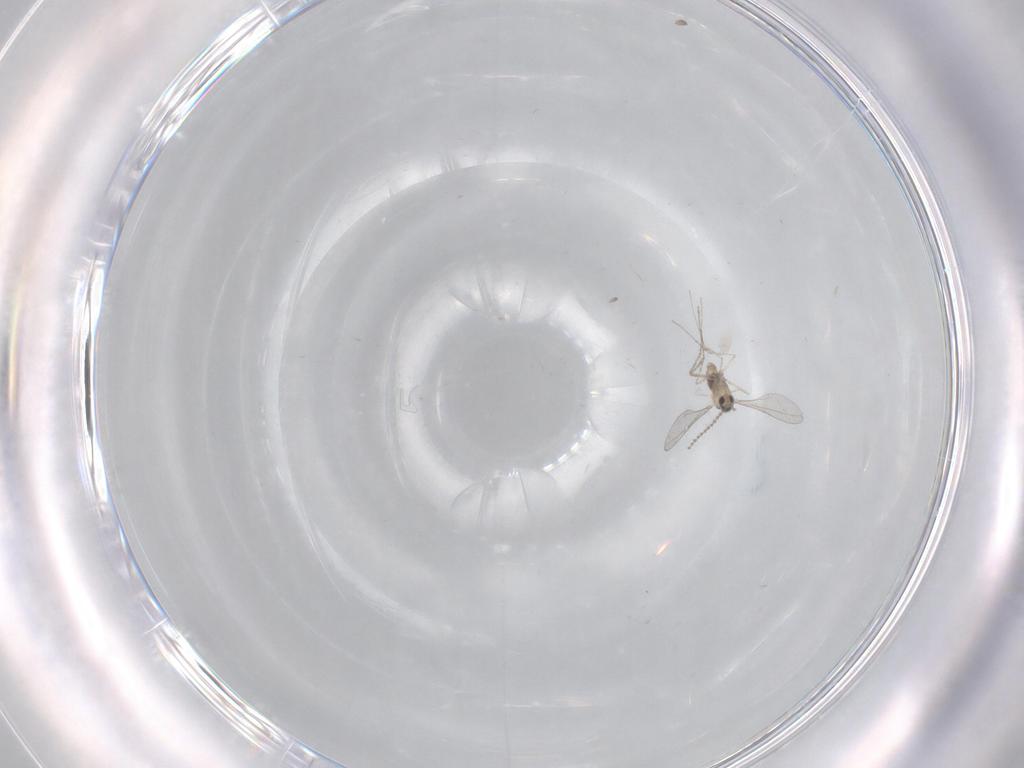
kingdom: Animalia
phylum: Arthropoda
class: Insecta
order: Diptera
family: Cecidomyiidae
